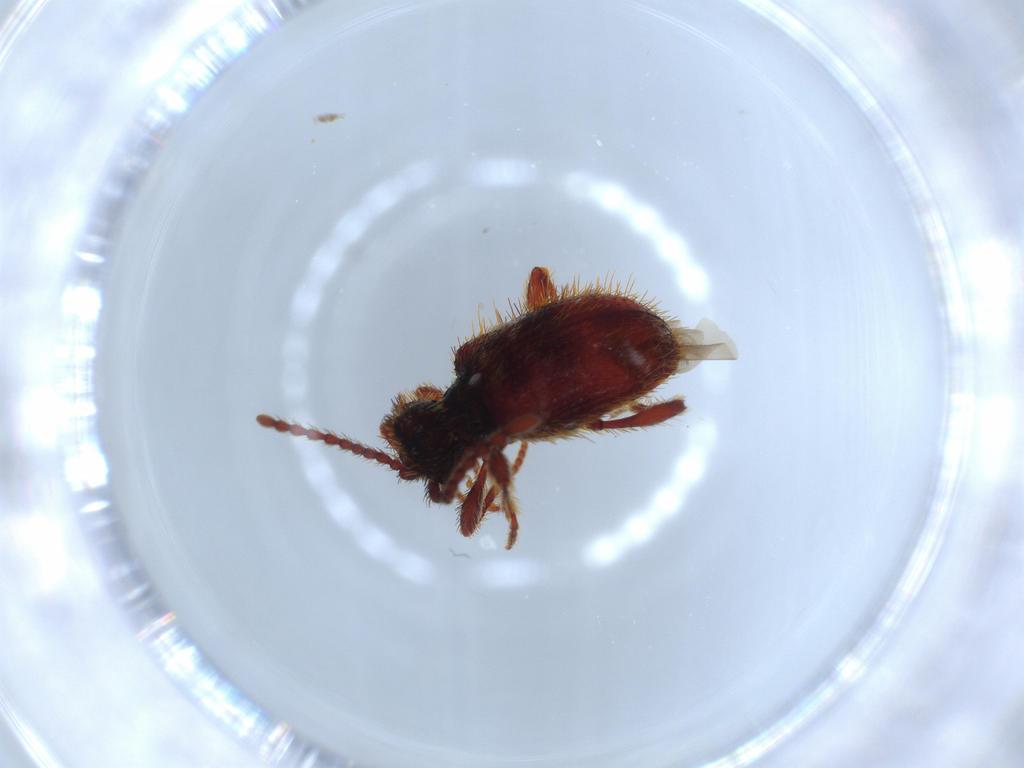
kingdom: Animalia
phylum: Arthropoda
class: Insecta
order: Coleoptera
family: Ptinidae
